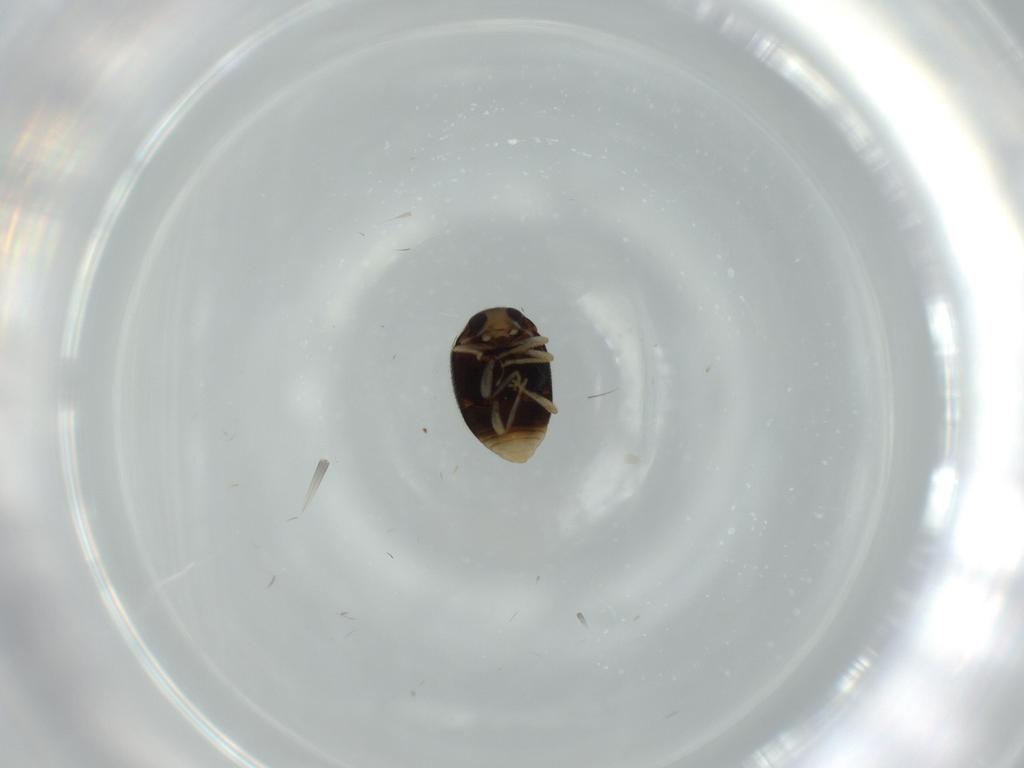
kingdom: Animalia
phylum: Arthropoda
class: Insecta
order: Coleoptera
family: Coccinellidae
